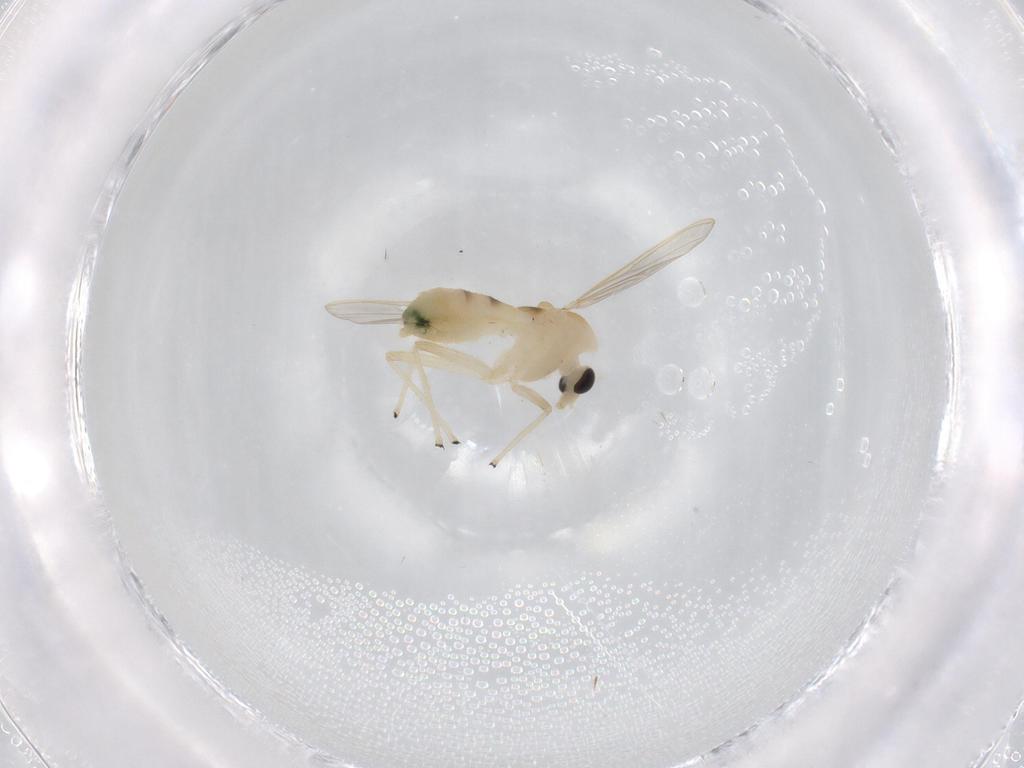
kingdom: Animalia
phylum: Arthropoda
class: Insecta
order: Diptera
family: Chironomidae
